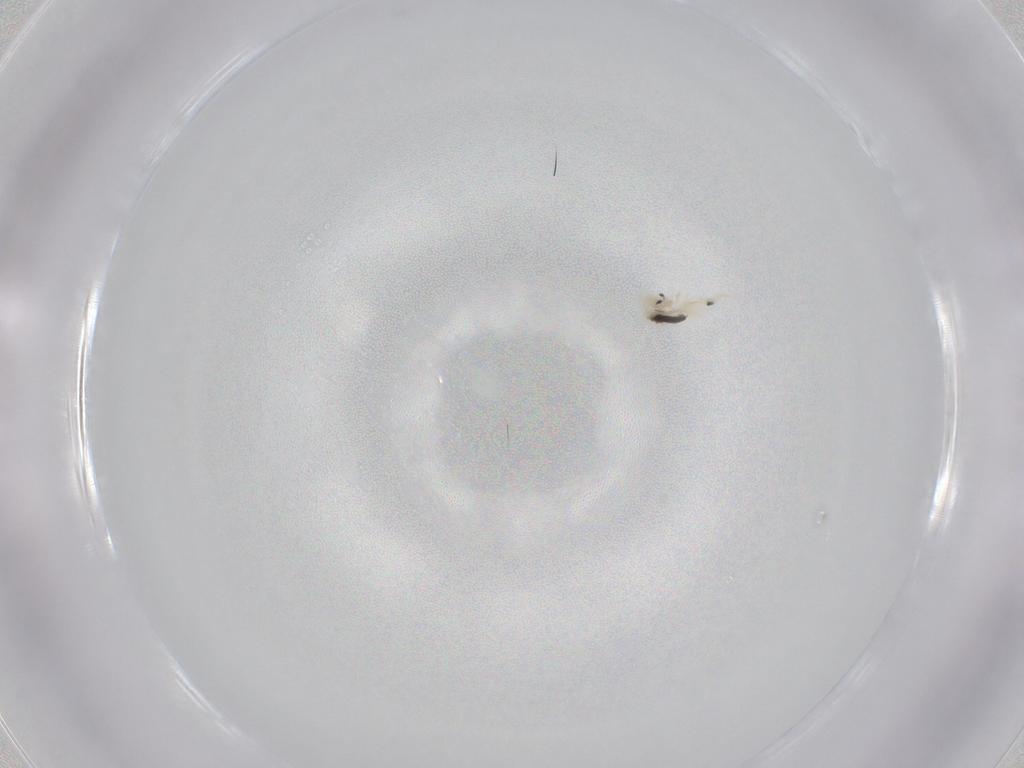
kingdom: Animalia
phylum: Arthropoda
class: Collembola
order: Entomobryomorpha
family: Entomobryidae
